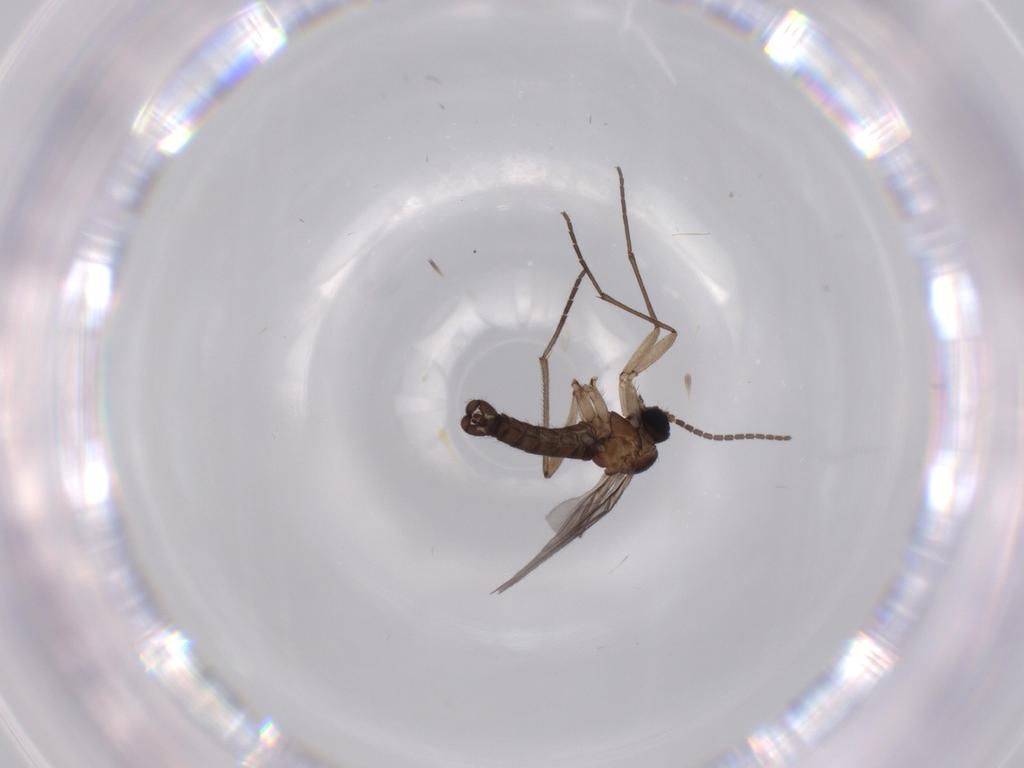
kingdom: Animalia
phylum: Arthropoda
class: Insecta
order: Diptera
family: Sciaridae
